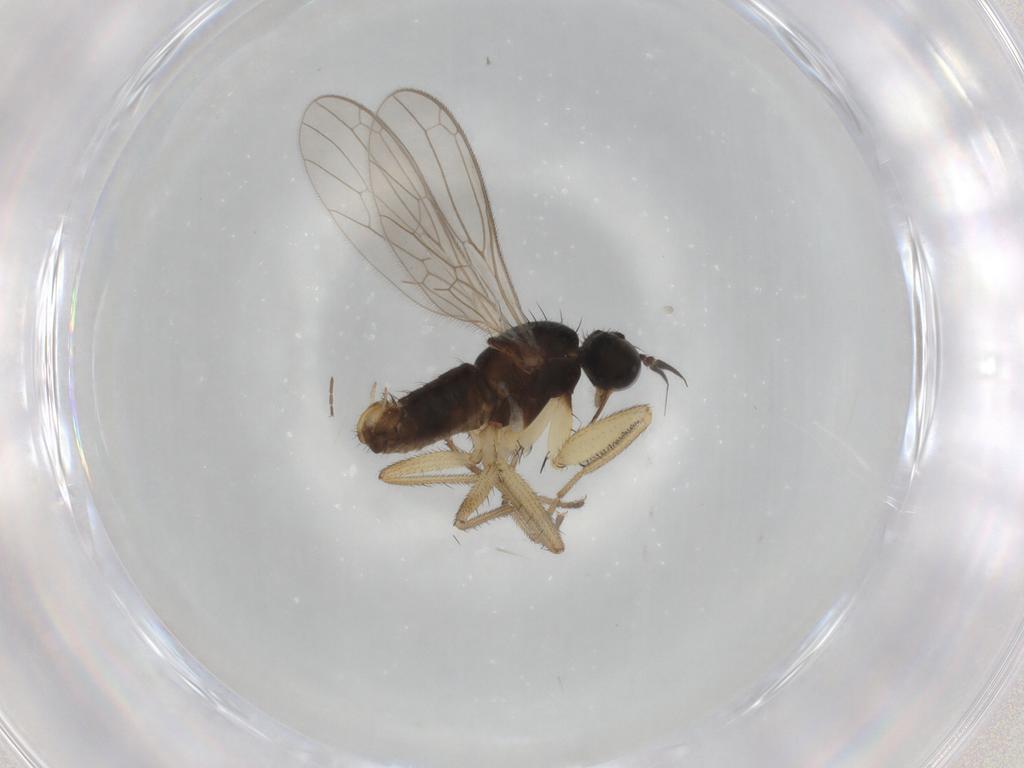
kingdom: Animalia
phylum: Arthropoda
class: Insecta
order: Diptera
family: Empididae
